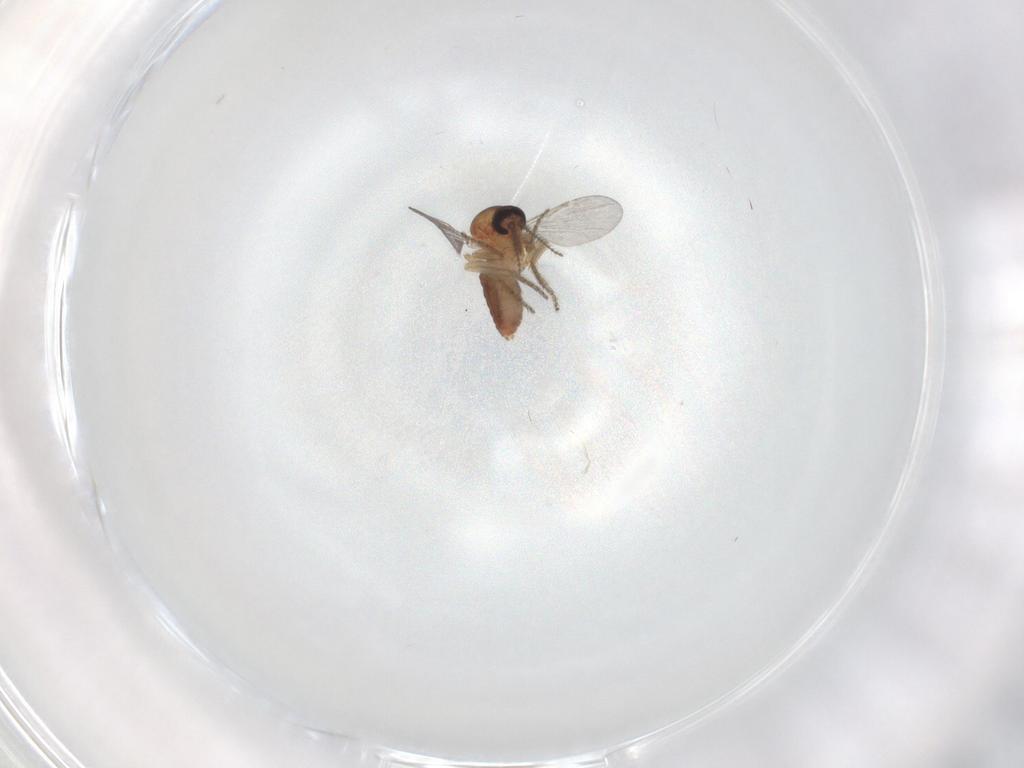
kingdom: Animalia
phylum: Arthropoda
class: Insecta
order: Diptera
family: Ceratopogonidae
